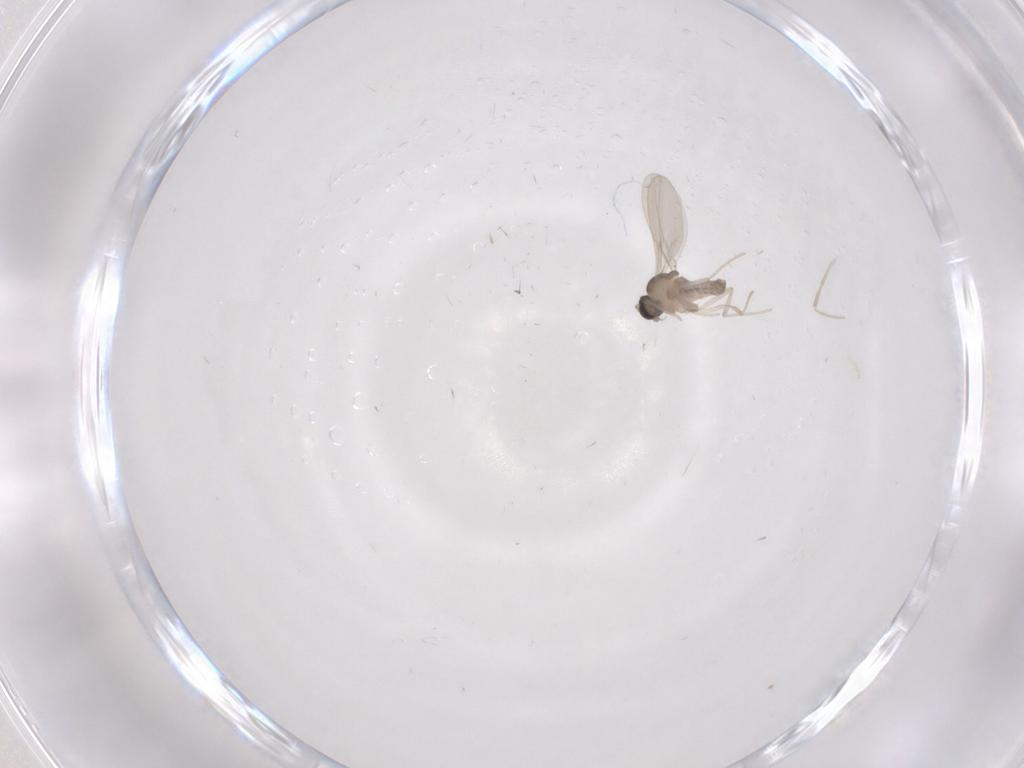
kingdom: Animalia
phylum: Arthropoda
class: Insecta
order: Diptera
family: Cecidomyiidae
